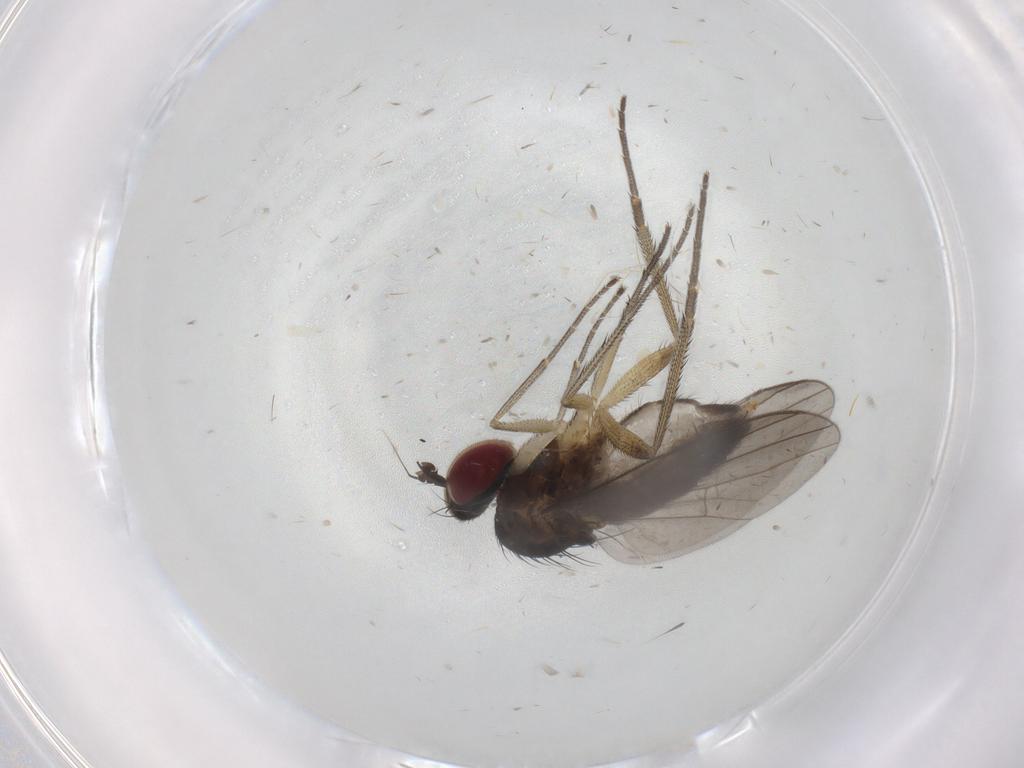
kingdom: Animalia
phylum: Arthropoda
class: Insecta
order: Diptera
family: Dolichopodidae
